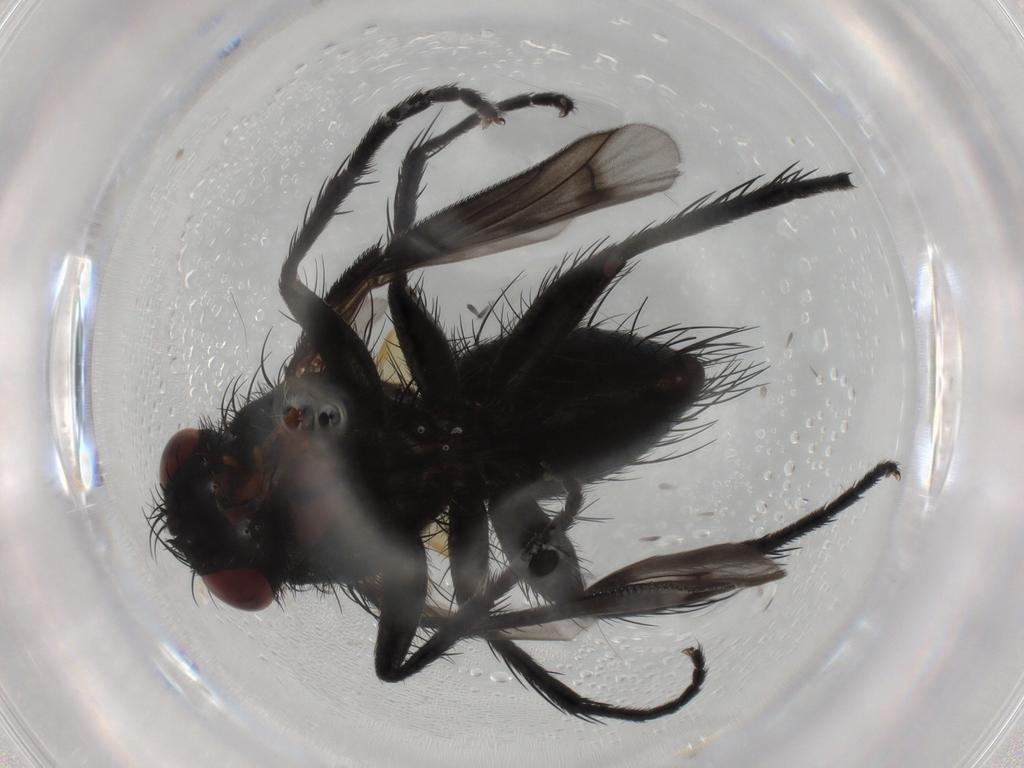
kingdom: Animalia
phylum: Arthropoda
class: Insecta
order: Diptera
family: Tachinidae
